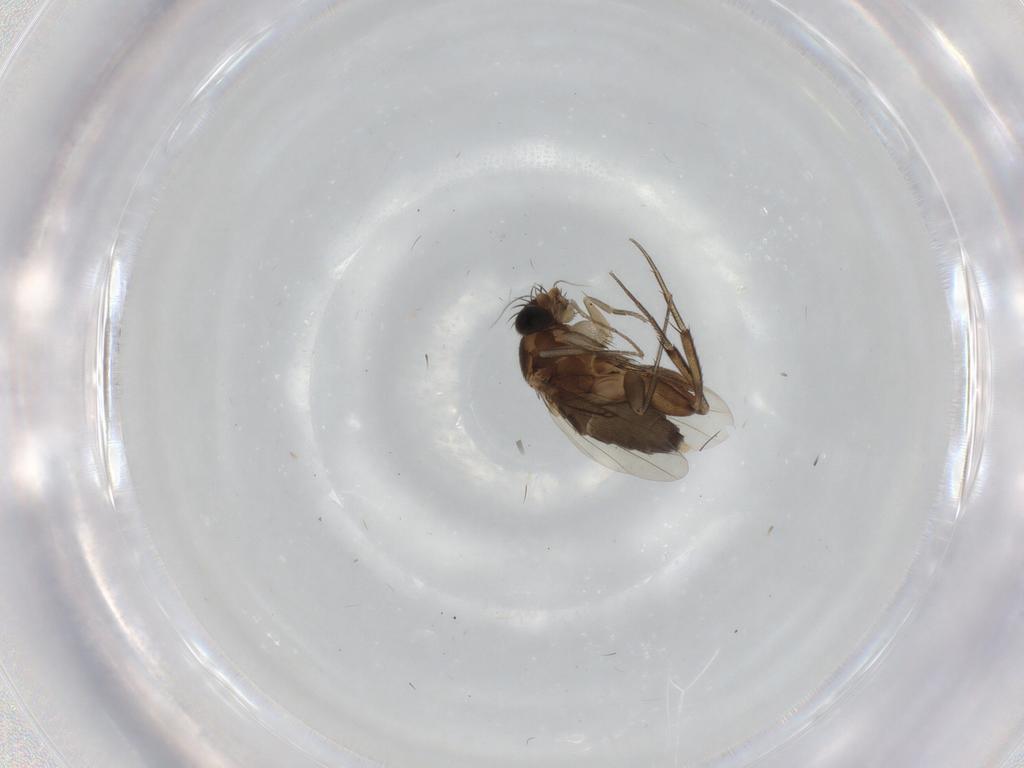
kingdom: Animalia
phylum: Arthropoda
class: Insecta
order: Diptera
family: Phoridae
